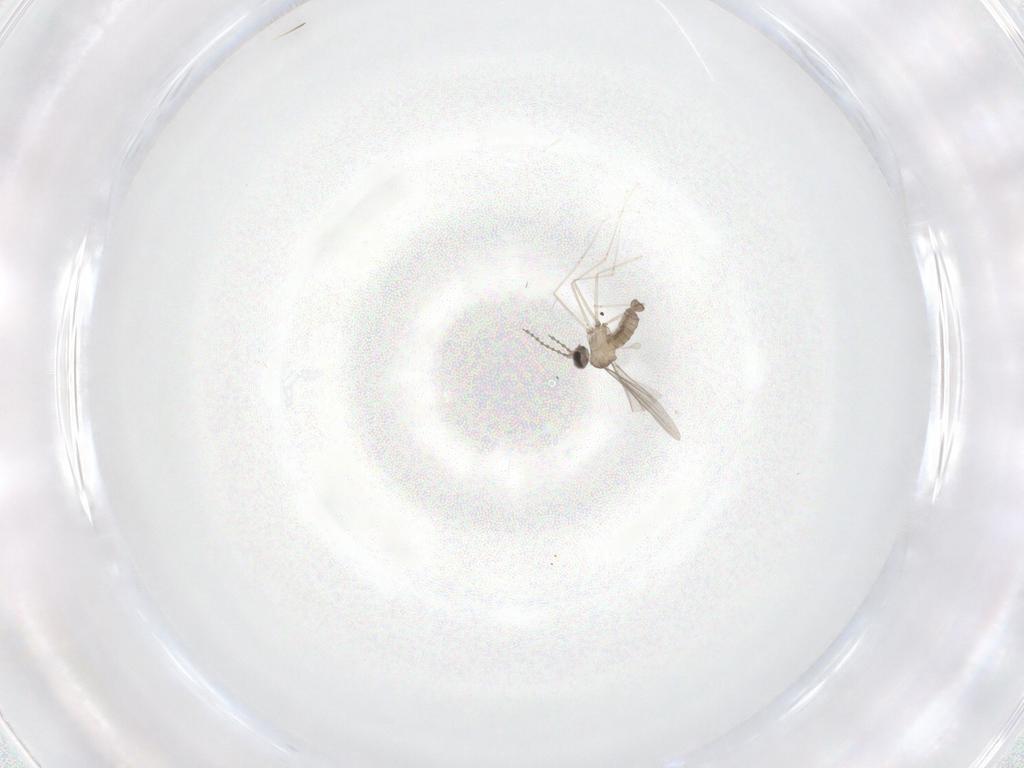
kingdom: Animalia
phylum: Arthropoda
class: Insecta
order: Diptera
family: Cecidomyiidae
